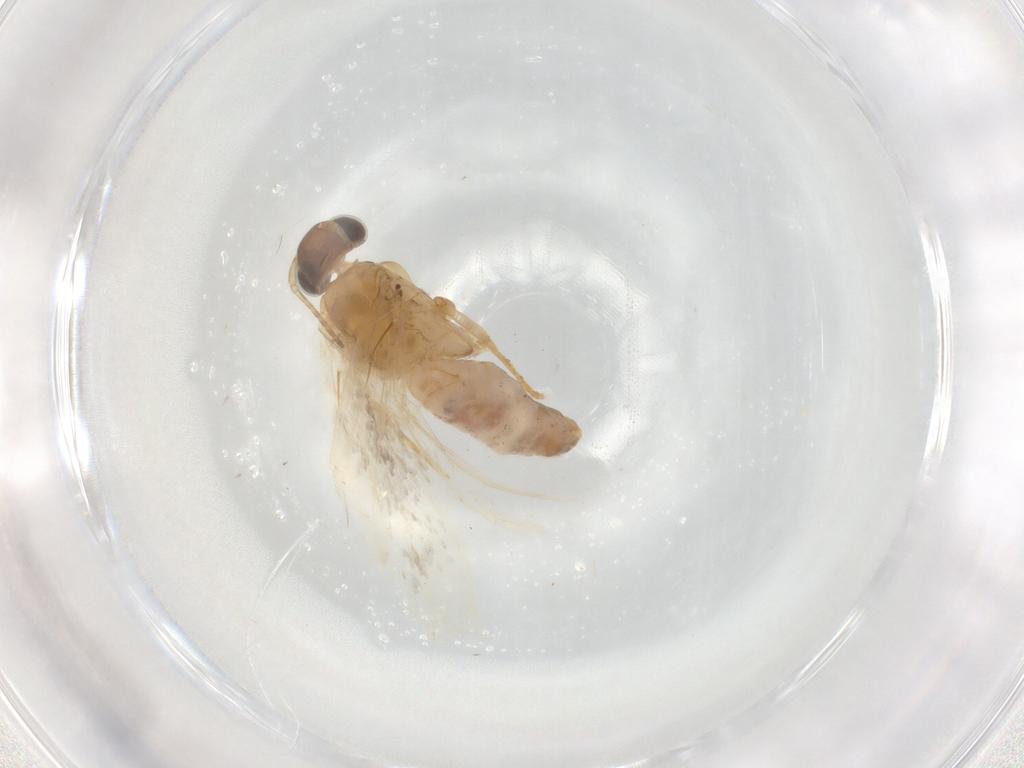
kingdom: Animalia
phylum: Arthropoda
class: Insecta
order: Lepidoptera
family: Gelechiidae
